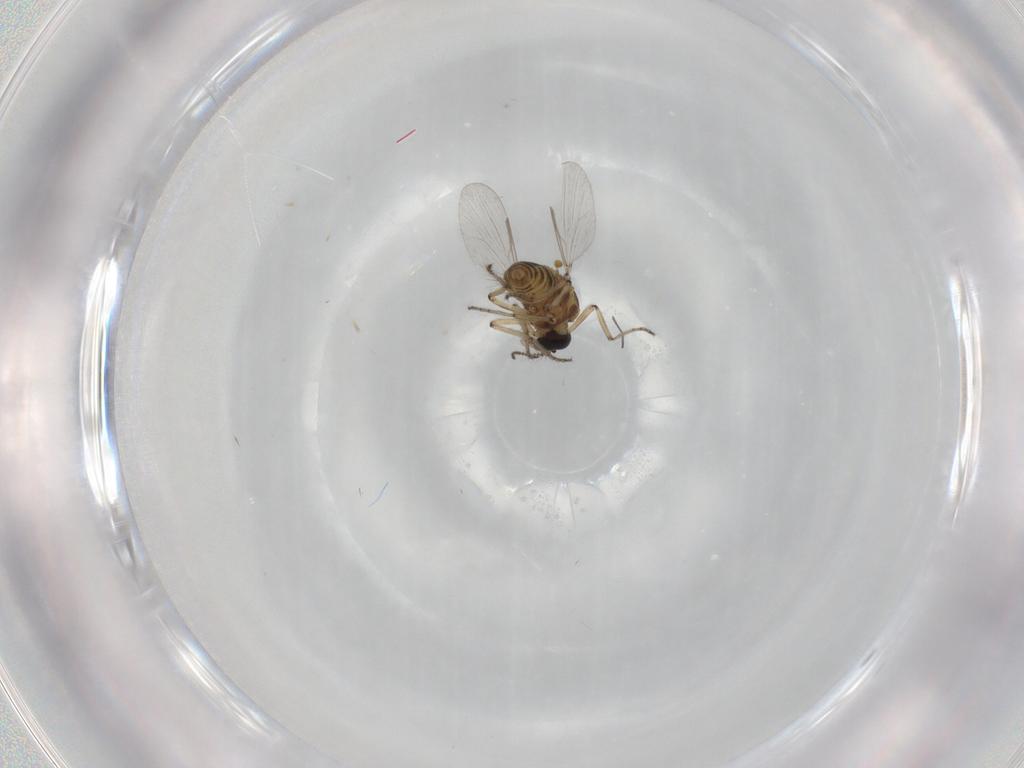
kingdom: Animalia
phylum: Arthropoda
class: Insecta
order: Diptera
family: Ceratopogonidae
